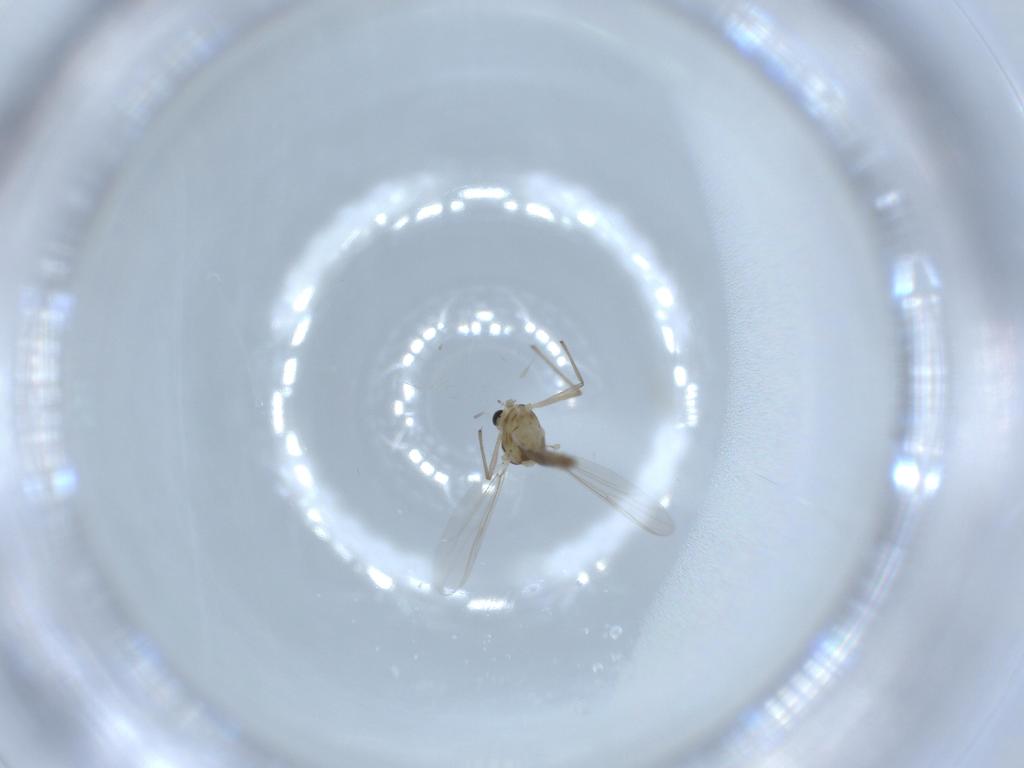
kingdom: Animalia
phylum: Arthropoda
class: Insecta
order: Diptera
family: Chironomidae
